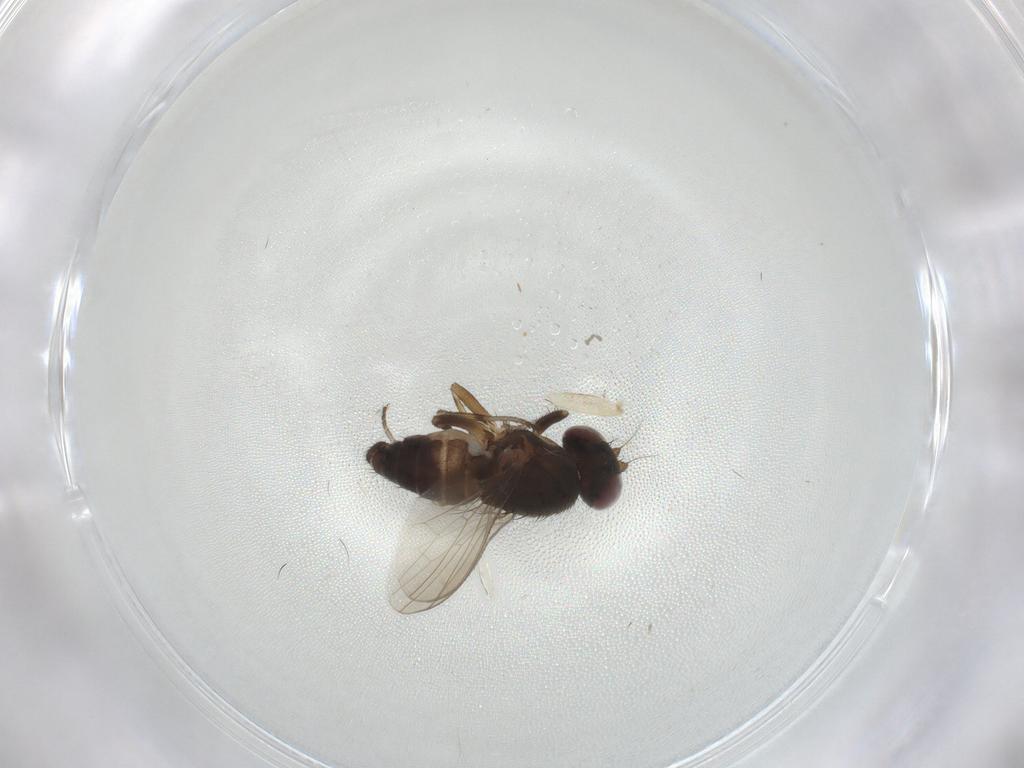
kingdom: Animalia
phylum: Arthropoda
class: Insecta
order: Diptera
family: Heleomyzidae
